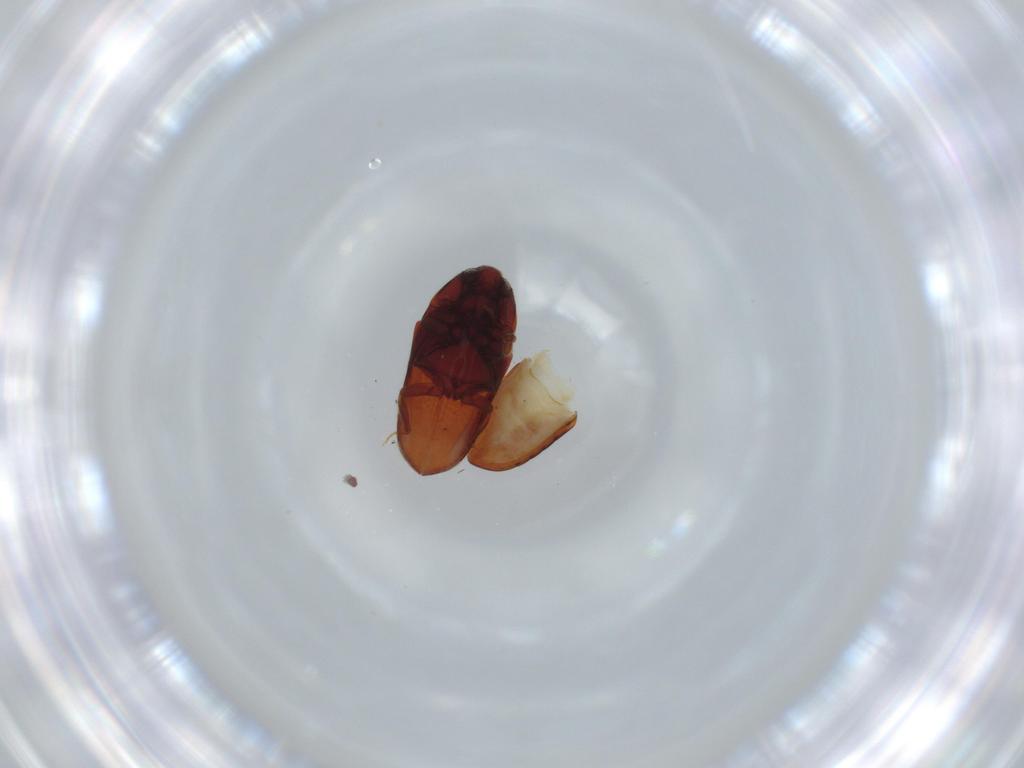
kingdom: Animalia
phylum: Arthropoda
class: Insecta
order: Coleoptera
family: Throscidae
